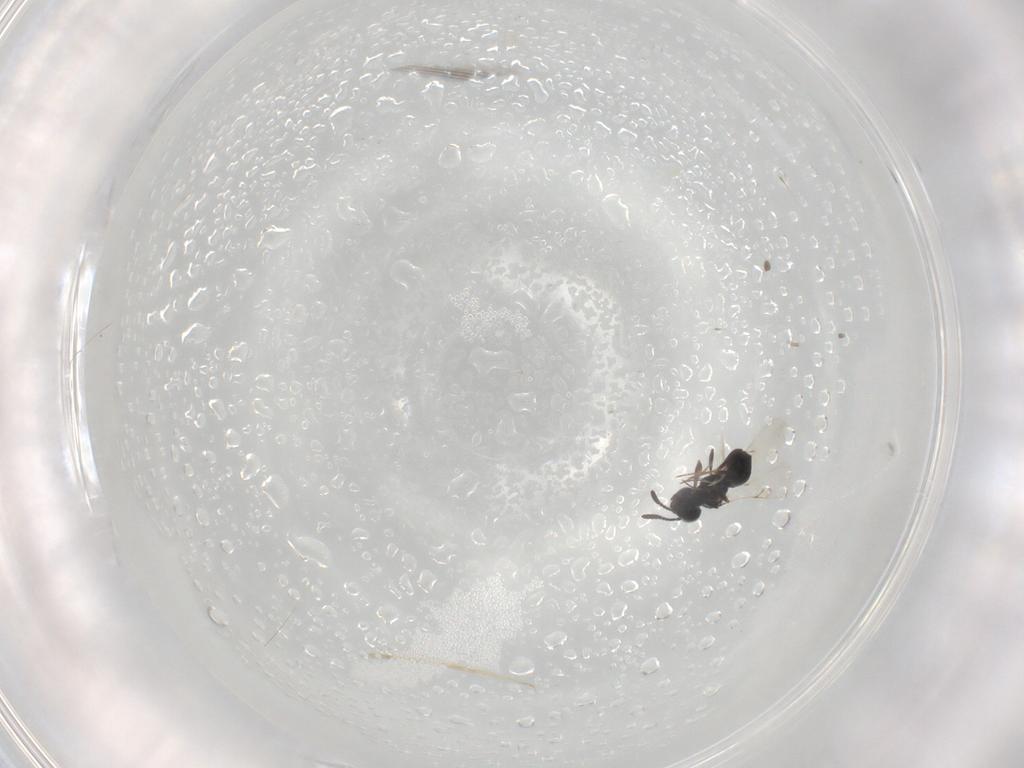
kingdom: Animalia
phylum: Arthropoda
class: Insecta
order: Hymenoptera
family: Scelionidae
